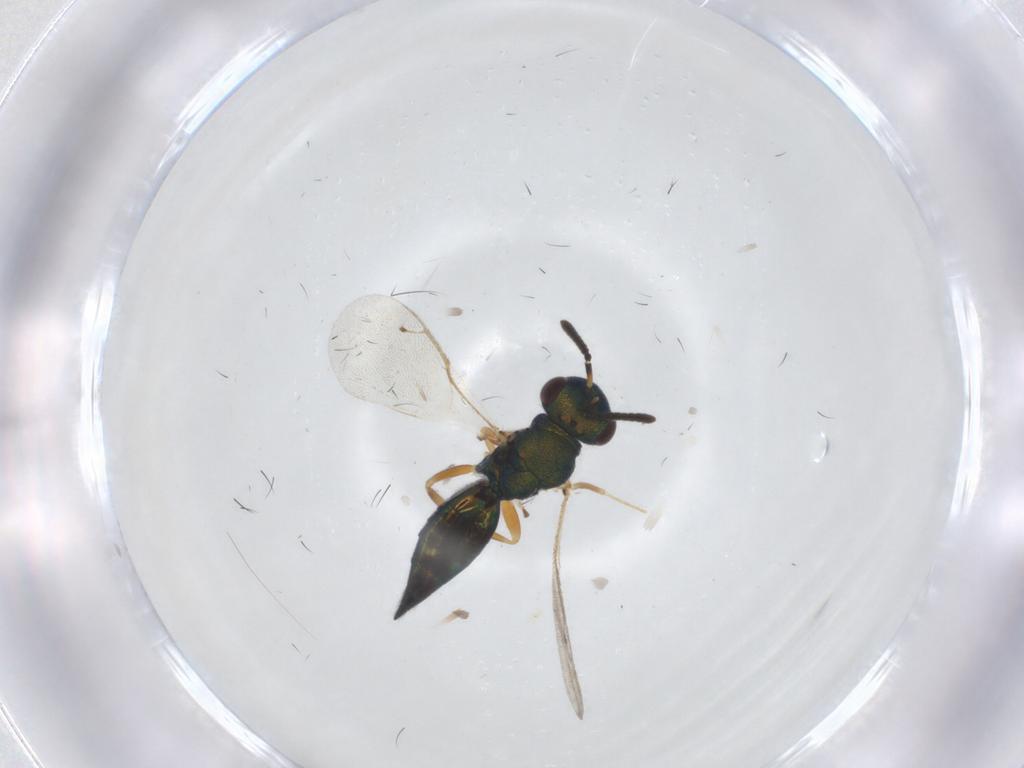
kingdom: Animalia
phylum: Arthropoda
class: Insecta
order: Hymenoptera
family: Pteromalidae
